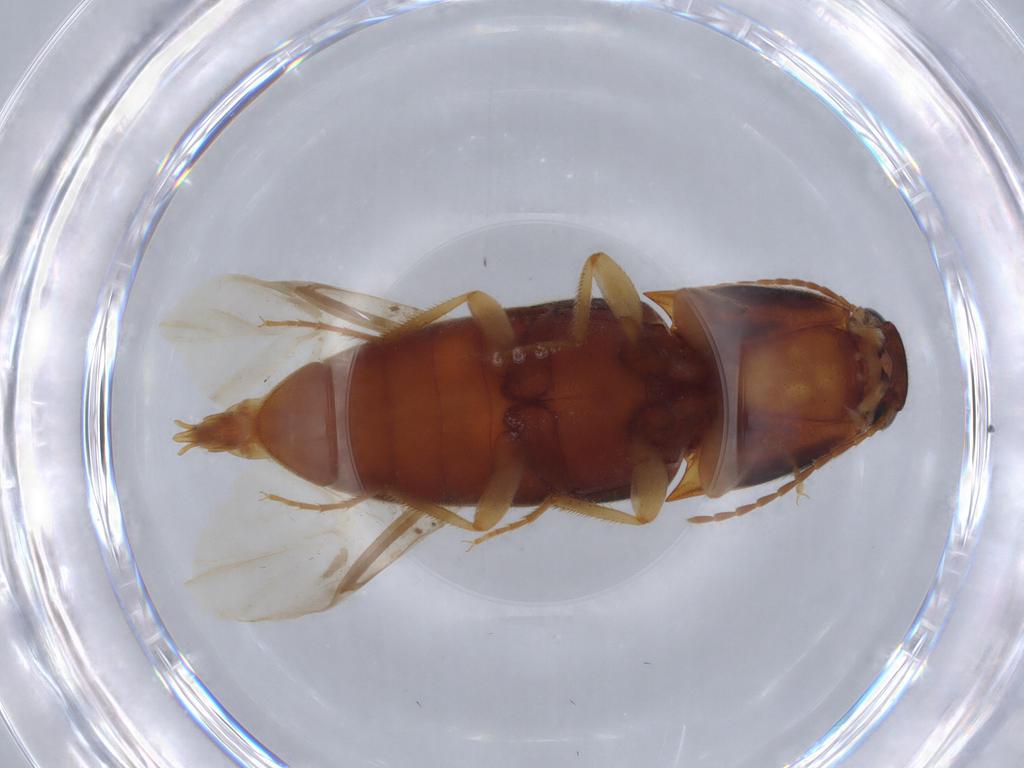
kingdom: Animalia
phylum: Arthropoda
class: Insecta
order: Coleoptera
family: Elateridae
